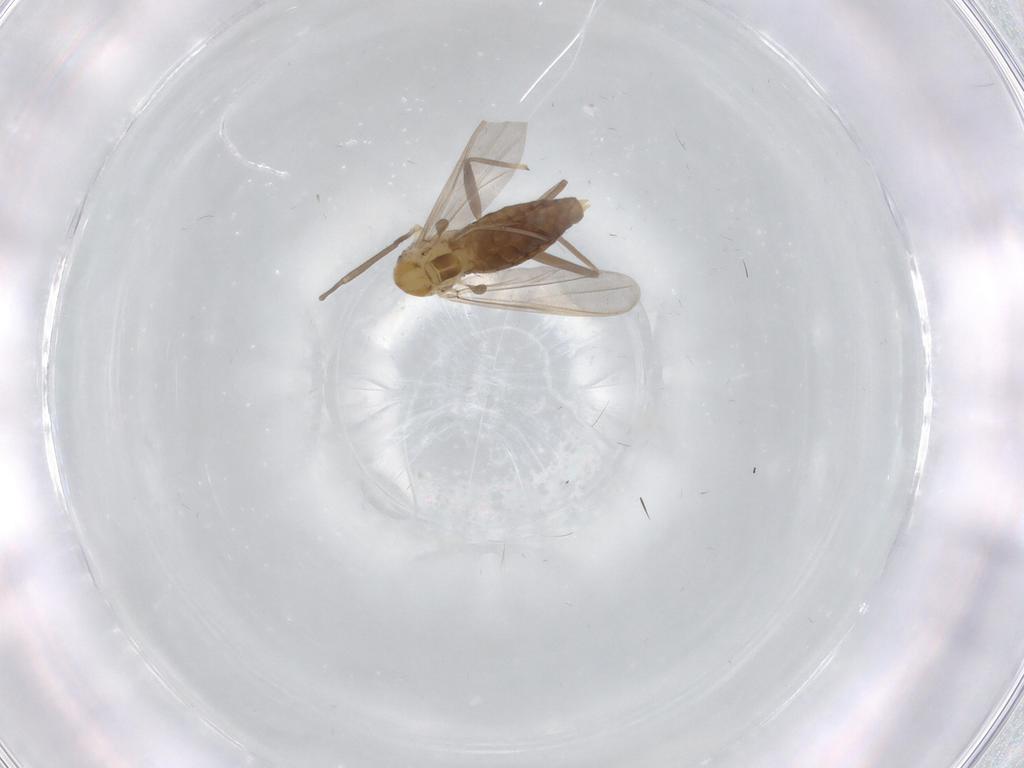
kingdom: Animalia
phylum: Arthropoda
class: Insecta
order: Diptera
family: Chironomidae
